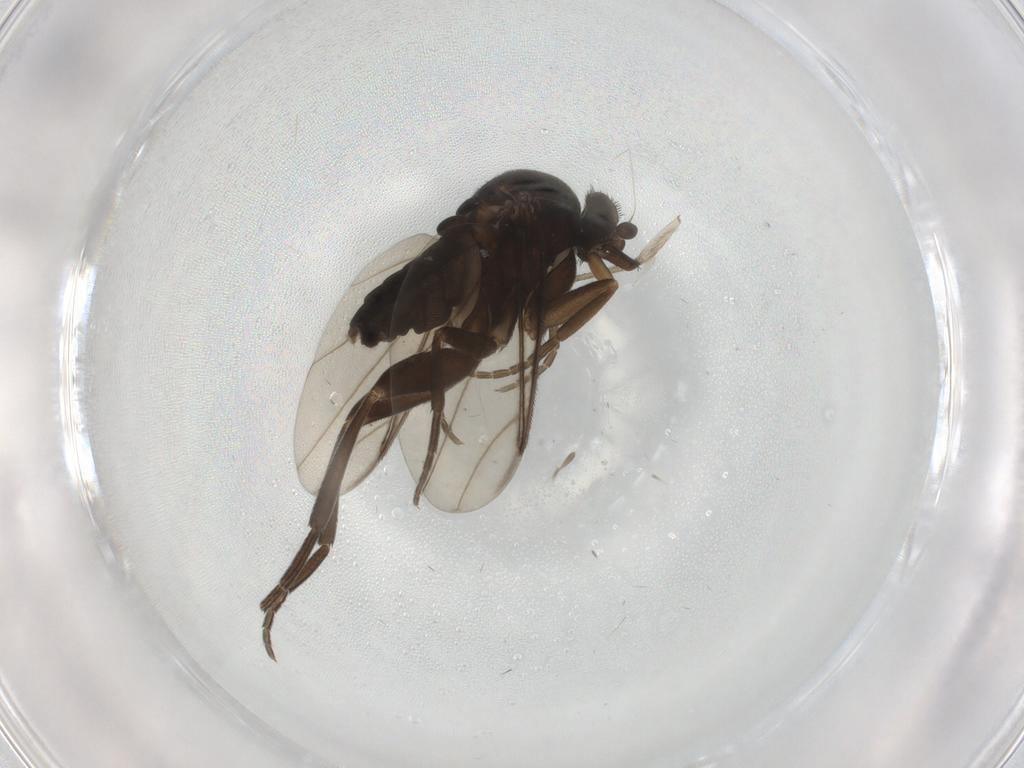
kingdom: Animalia
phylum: Arthropoda
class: Insecta
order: Diptera
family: Phoridae
